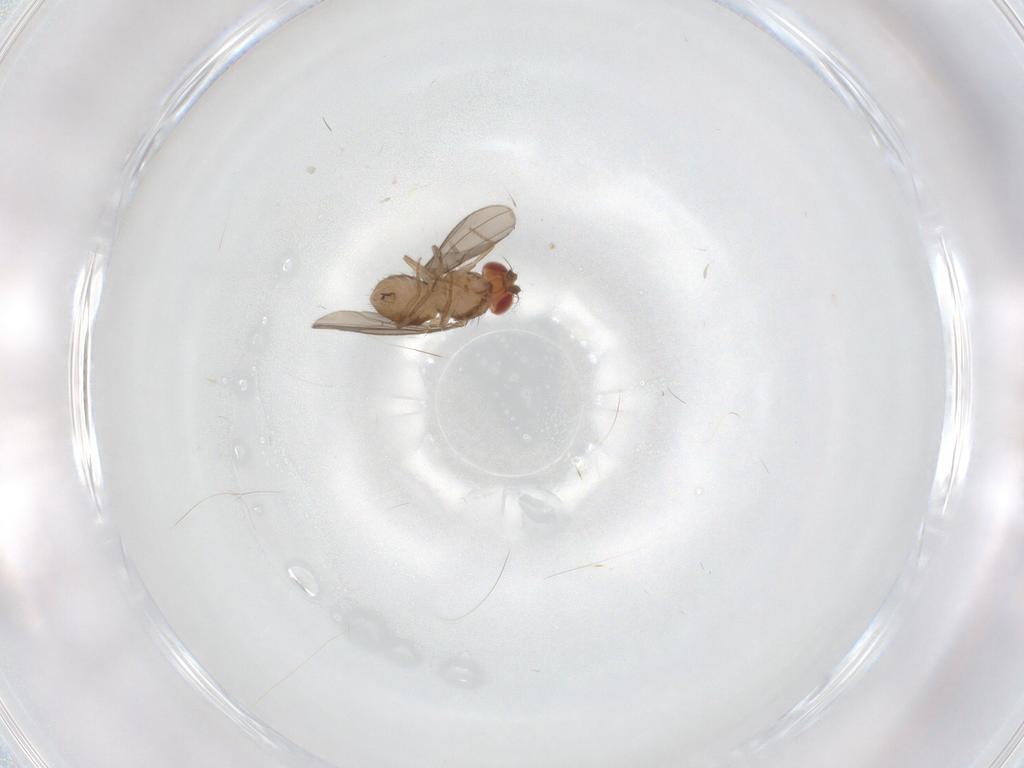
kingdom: Animalia
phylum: Arthropoda
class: Insecta
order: Diptera
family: Drosophilidae
